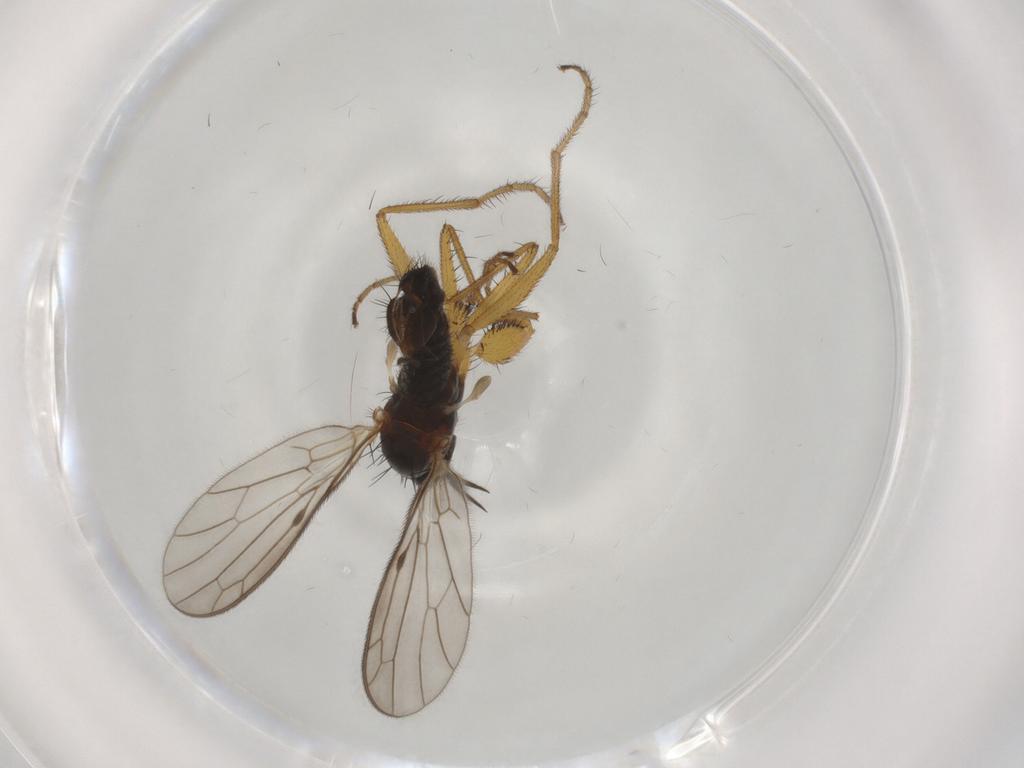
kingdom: Animalia
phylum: Arthropoda
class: Insecta
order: Diptera
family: Empididae
